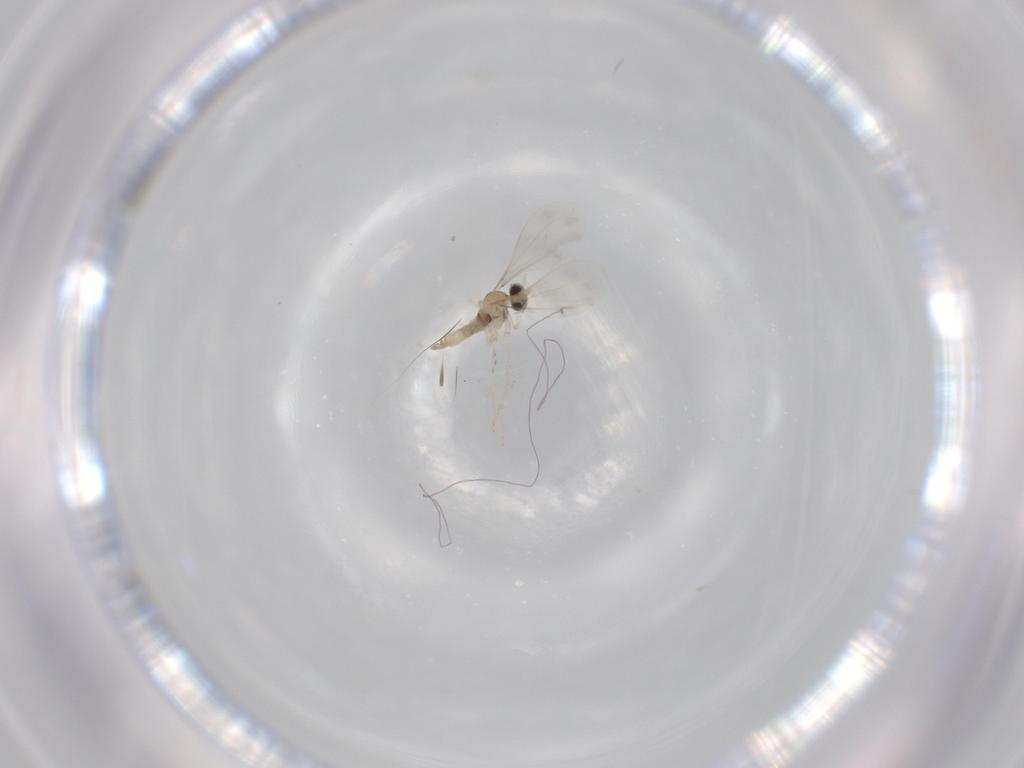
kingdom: Animalia
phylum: Arthropoda
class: Insecta
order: Diptera
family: Cecidomyiidae
